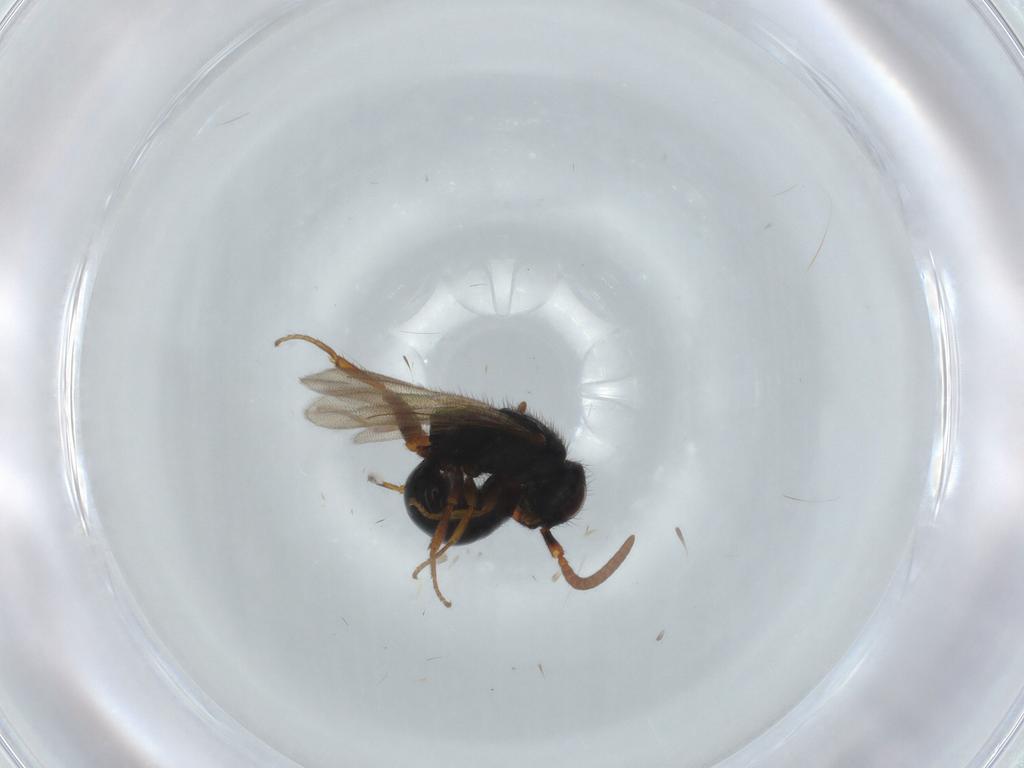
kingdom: Animalia
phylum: Arthropoda
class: Insecta
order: Hymenoptera
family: Bethylidae
